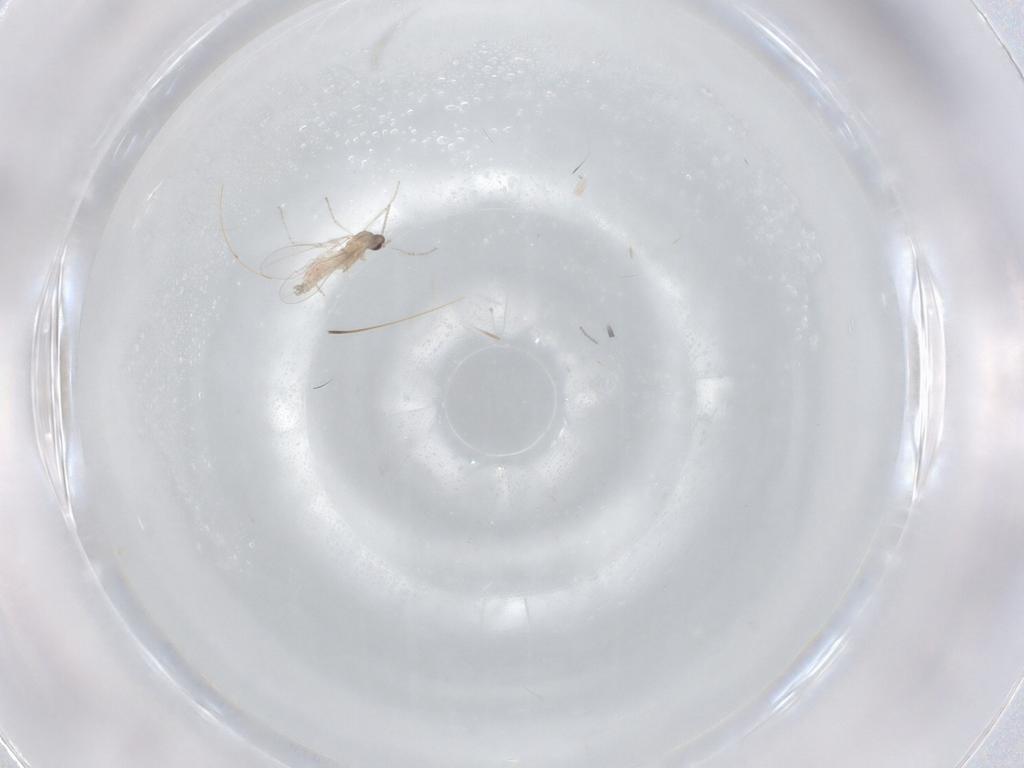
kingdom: Animalia
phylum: Arthropoda
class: Insecta
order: Diptera
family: Cecidomyiidae
